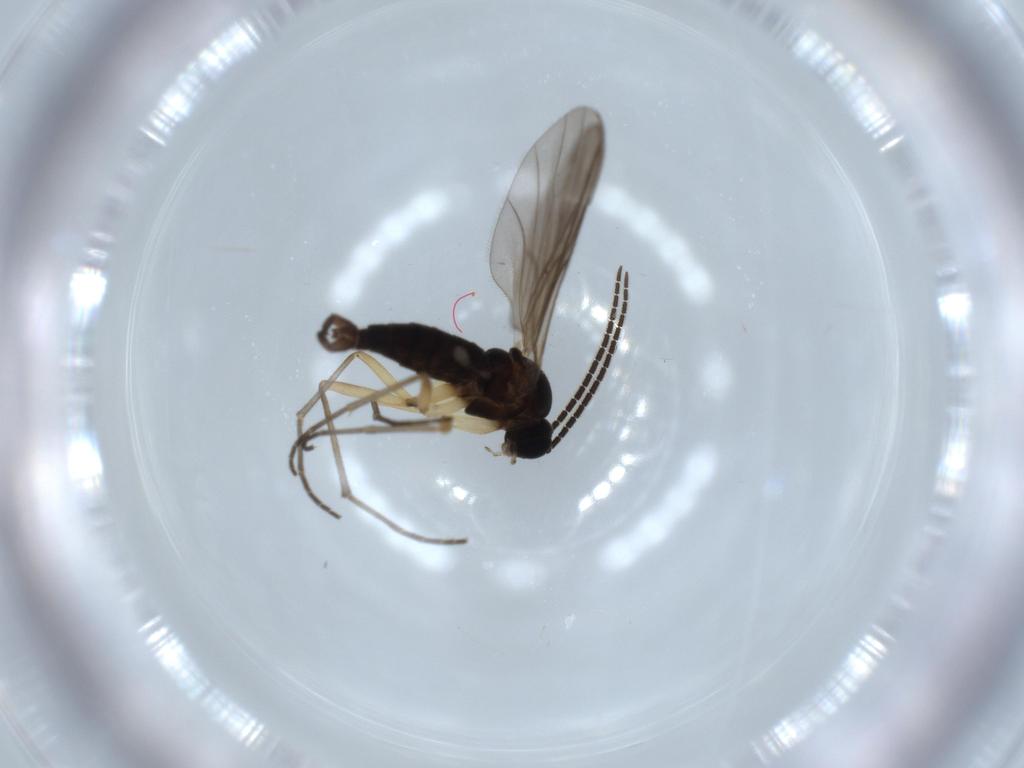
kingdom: Animalia
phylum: Arthropoda
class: Insecta
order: Diptera
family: Sciaridae
